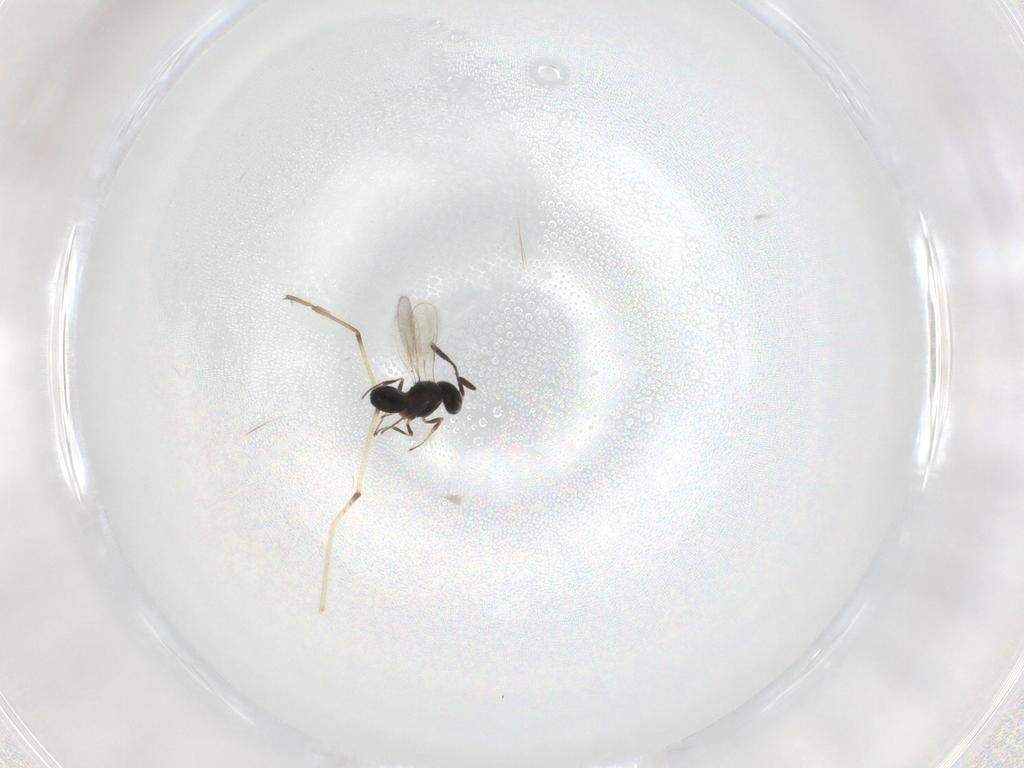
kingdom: Animalia
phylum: Arthropoda
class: Insecta
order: Hymenoptera
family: Scelionidae
